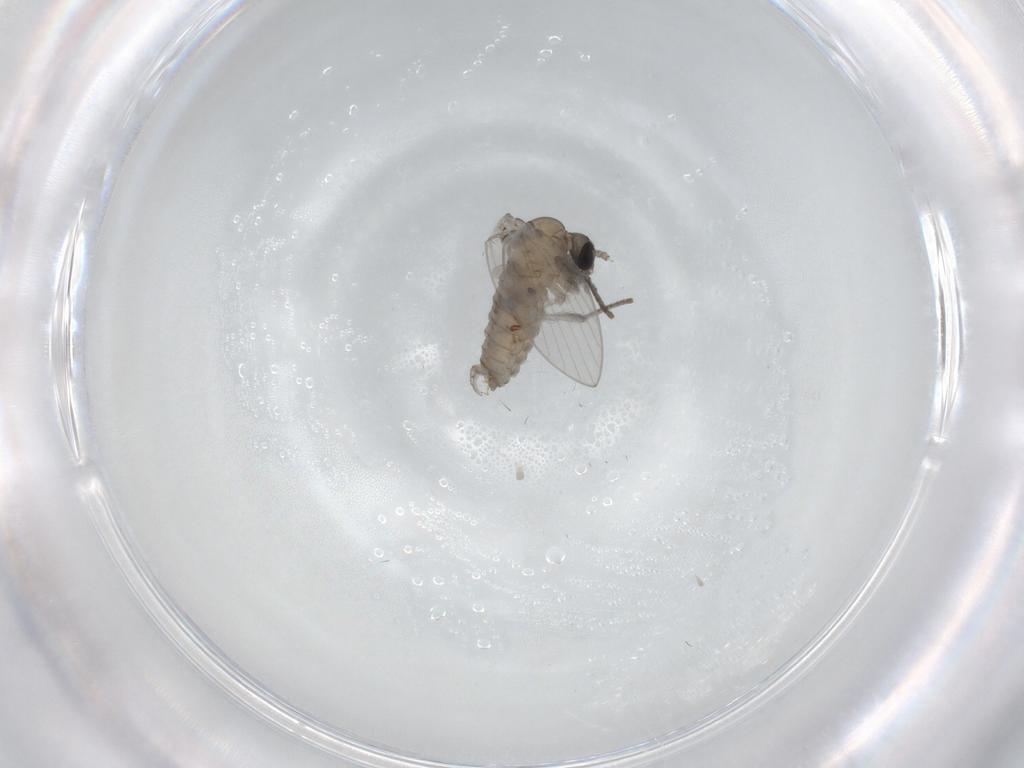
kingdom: Animalia
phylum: Arthropoda
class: Insecta
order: Diptera
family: Psychodidae
